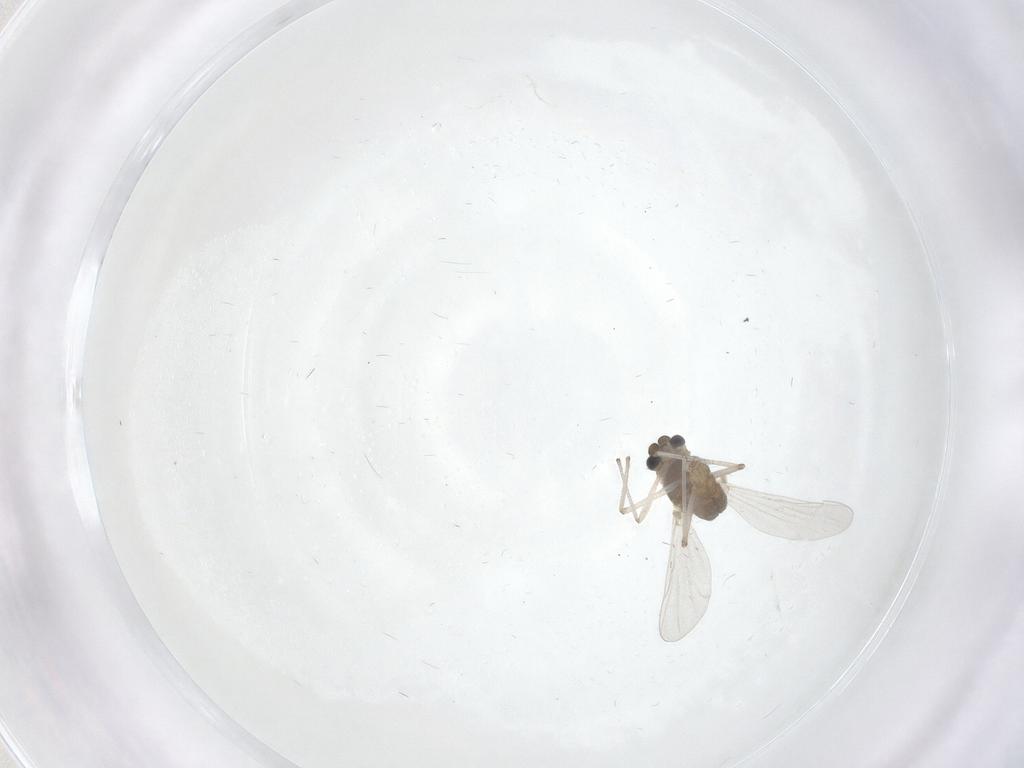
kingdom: Animalia
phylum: Arthropoda
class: Insecta
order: Diptera
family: Chironomidae
